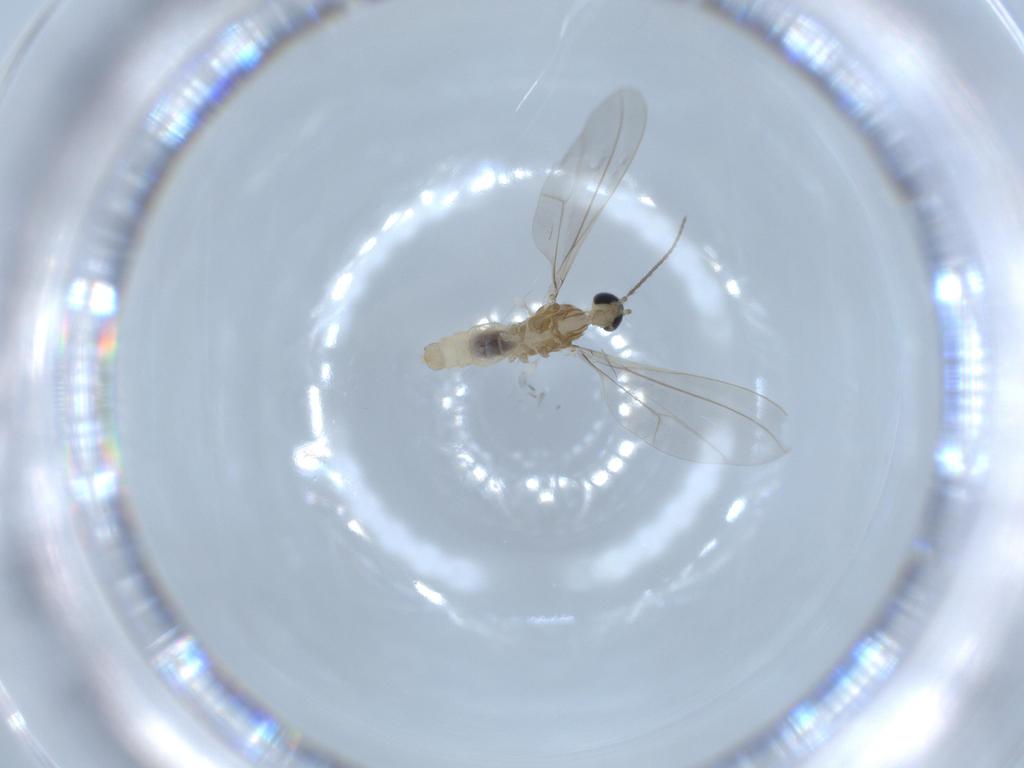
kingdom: Animalia
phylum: Arthropoda
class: Insecta
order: Diptera
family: Cecidomyiidae
